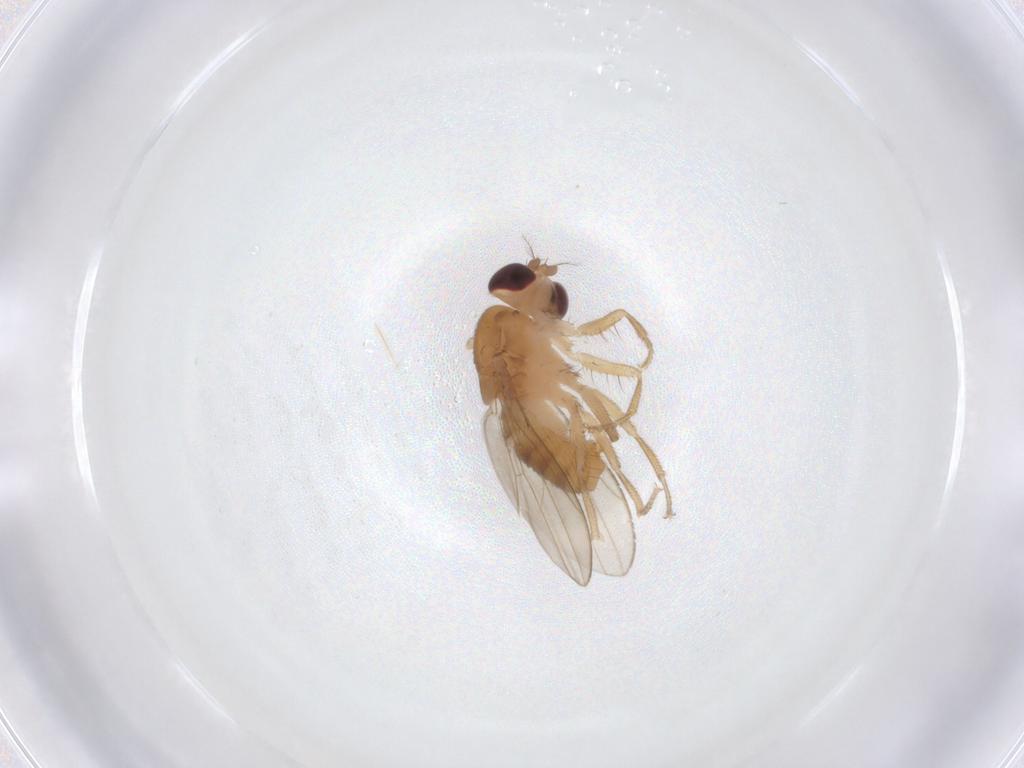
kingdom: Animalia
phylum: Arthropoda
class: Insecta
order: Diptera
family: Drosophilidae
